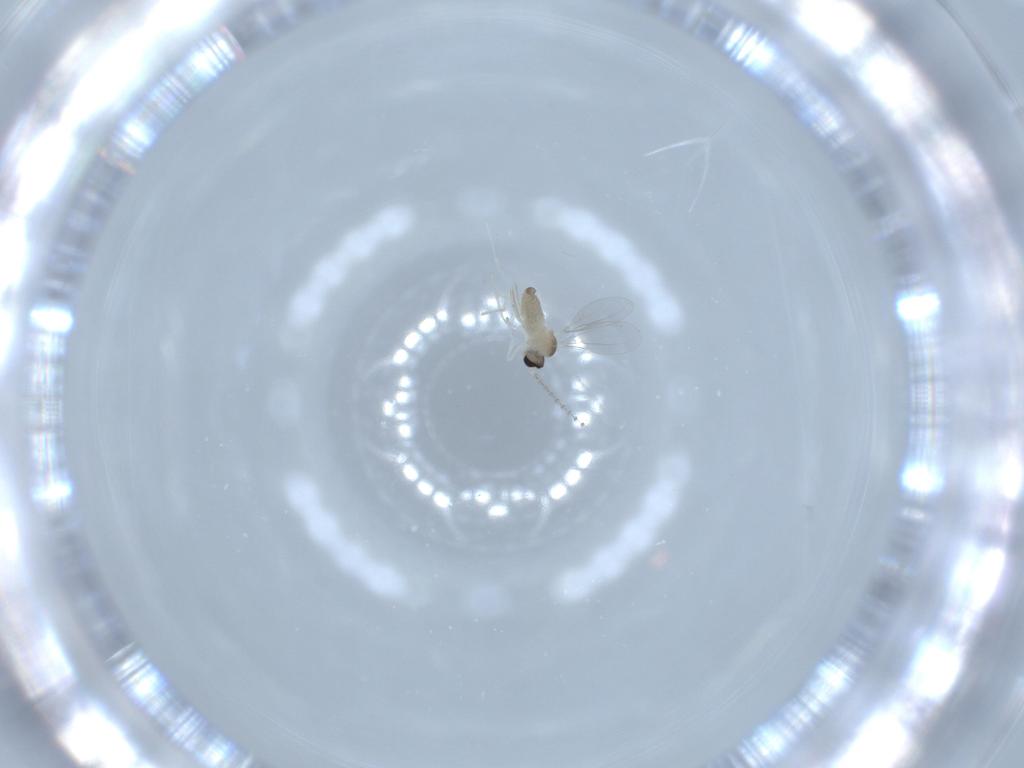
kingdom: Animalia
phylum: Arthropoda
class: Insecta
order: Diptera
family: Cecidomyiidae
